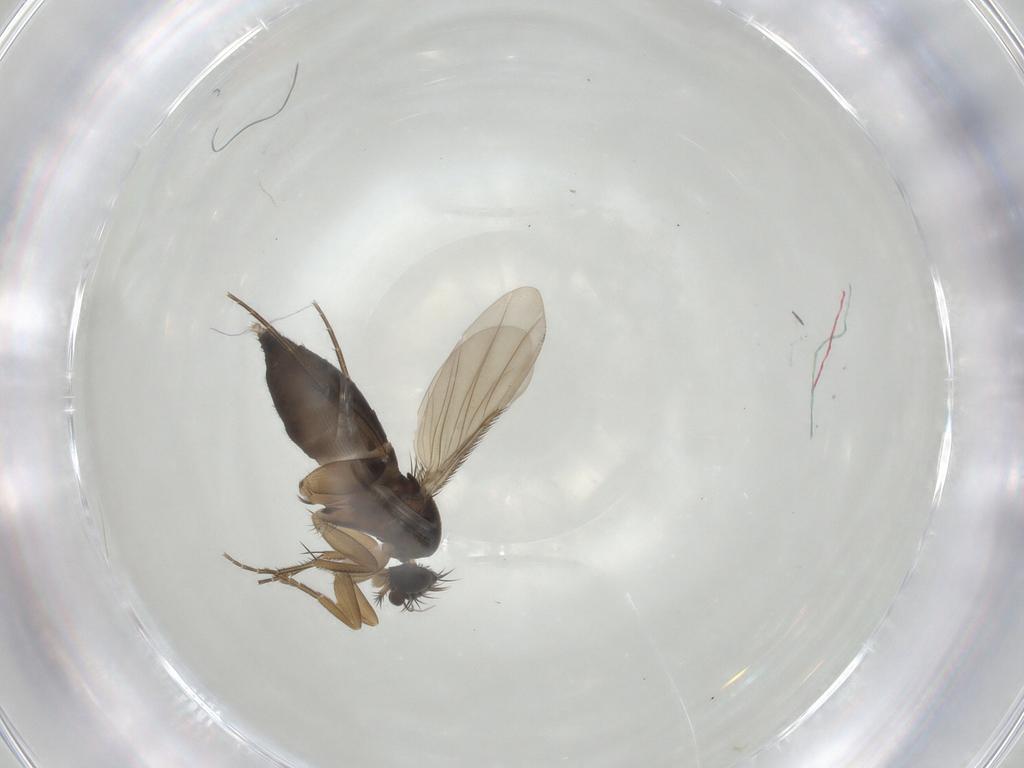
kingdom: Animalia
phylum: Arthropoda
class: Insecta
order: Diptera
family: Phoridae
